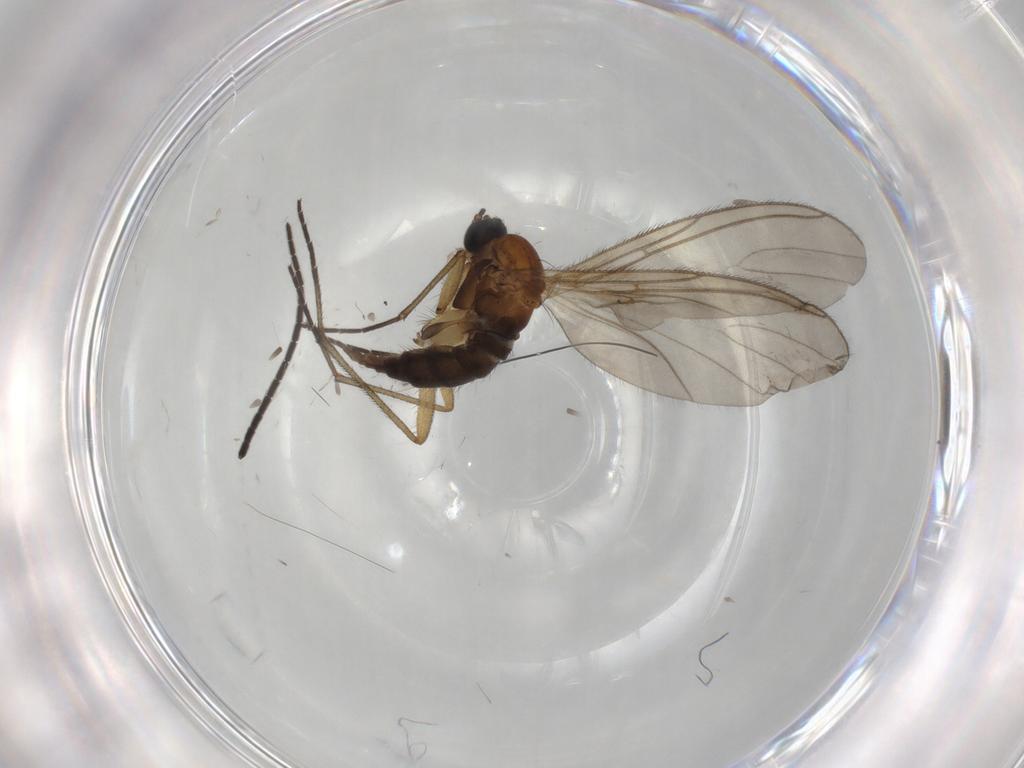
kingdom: Animalia
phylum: Arthropoda
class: Insecta
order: Diptera
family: Sciaridae
